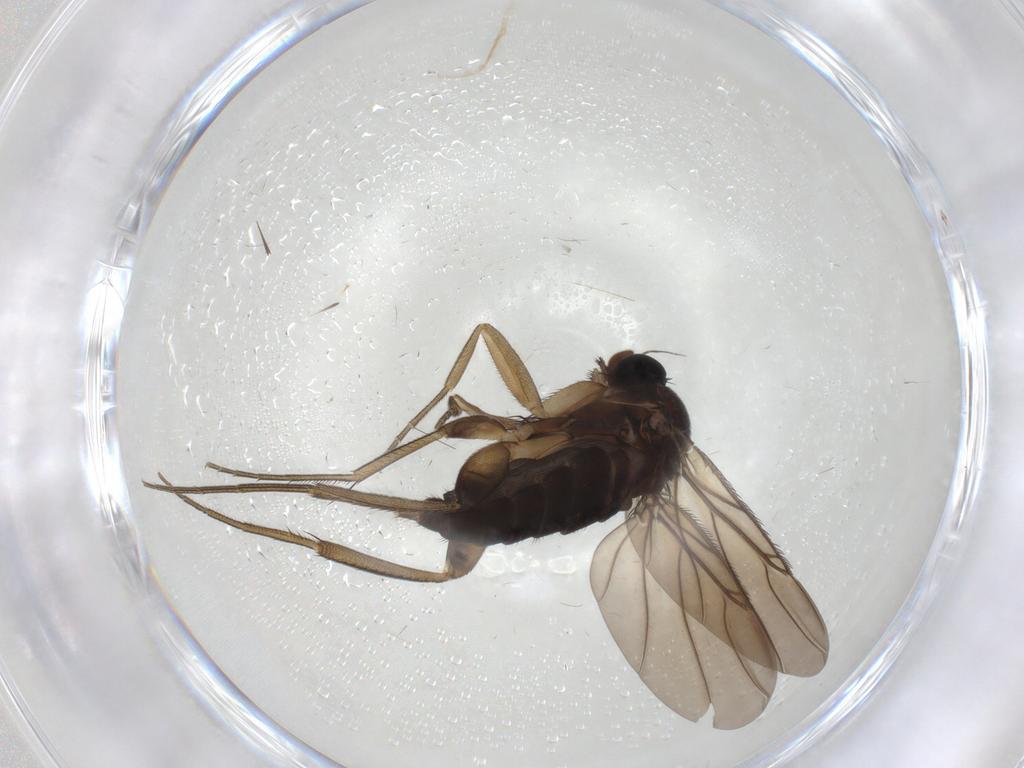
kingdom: Animalia
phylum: Arthropoda
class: Insecta
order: Diptera
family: Phoridae
